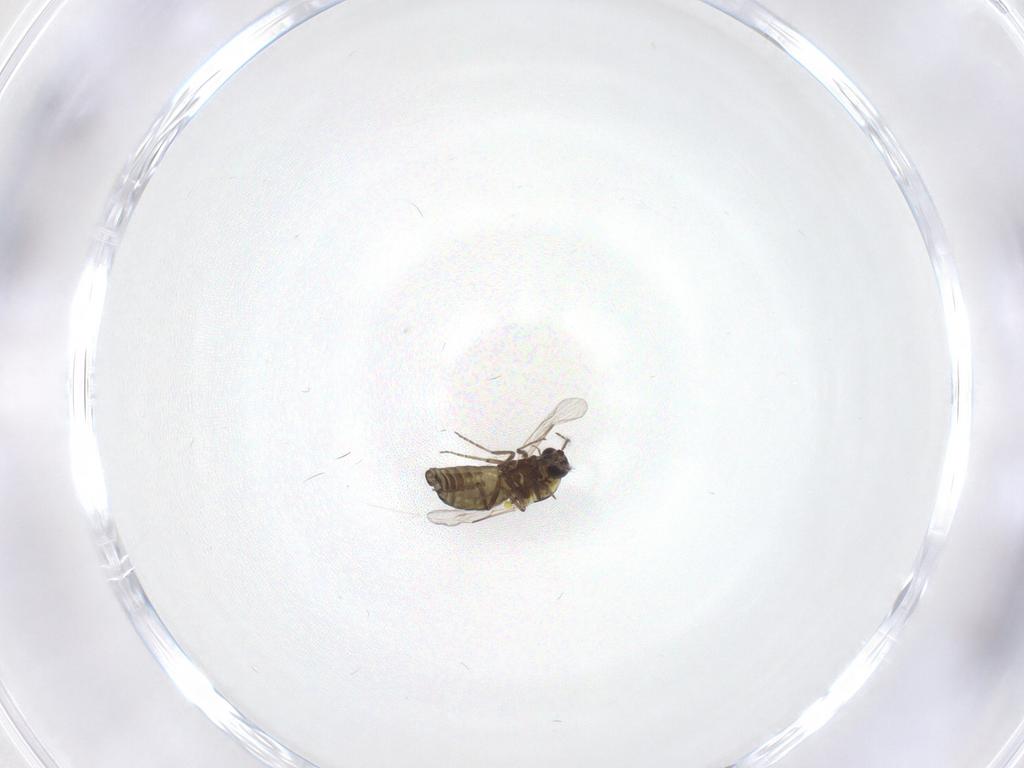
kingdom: Animalia
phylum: Arthropoda
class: Insecta
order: Diptera
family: Ceratopogonidae
